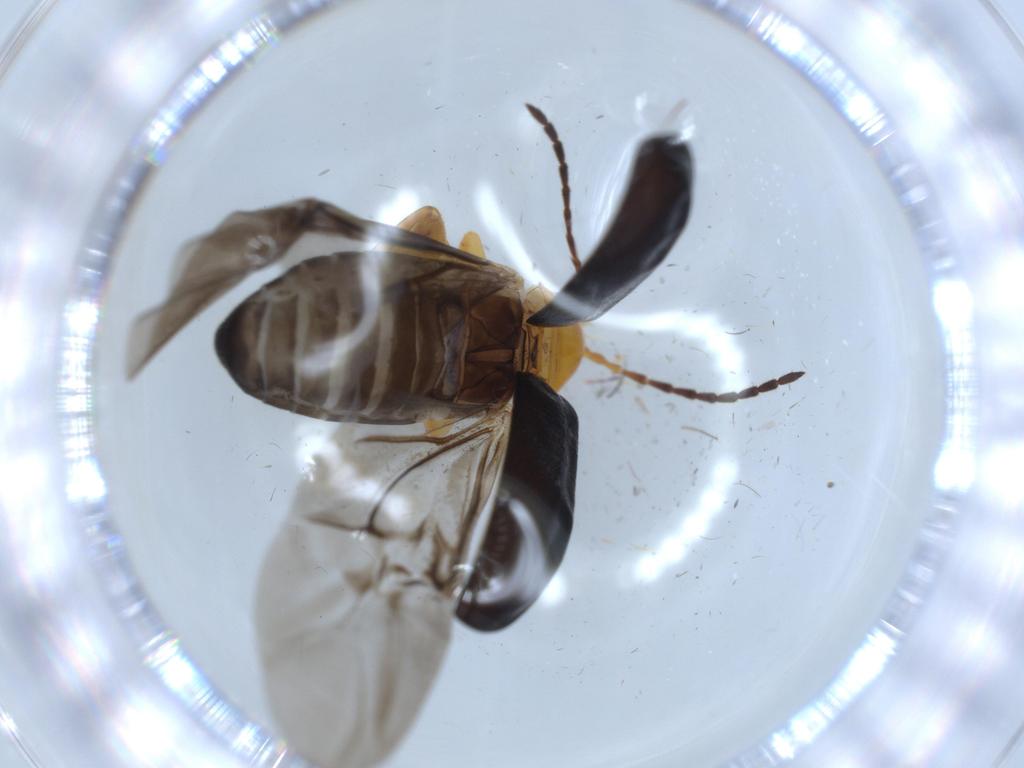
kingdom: Animalia
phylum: Arthropoda
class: Insecta
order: Coleoptera
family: Chrysomelidae
